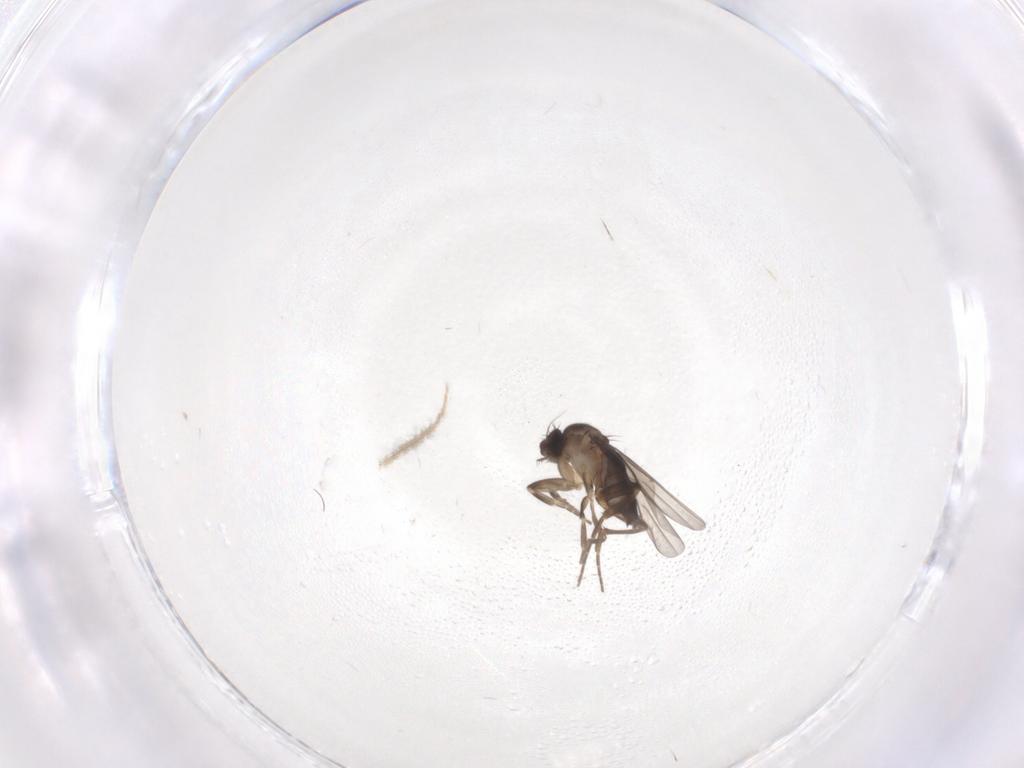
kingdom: Animalia
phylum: Arthropoda
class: Insecta
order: Diptera
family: Chironomidae
